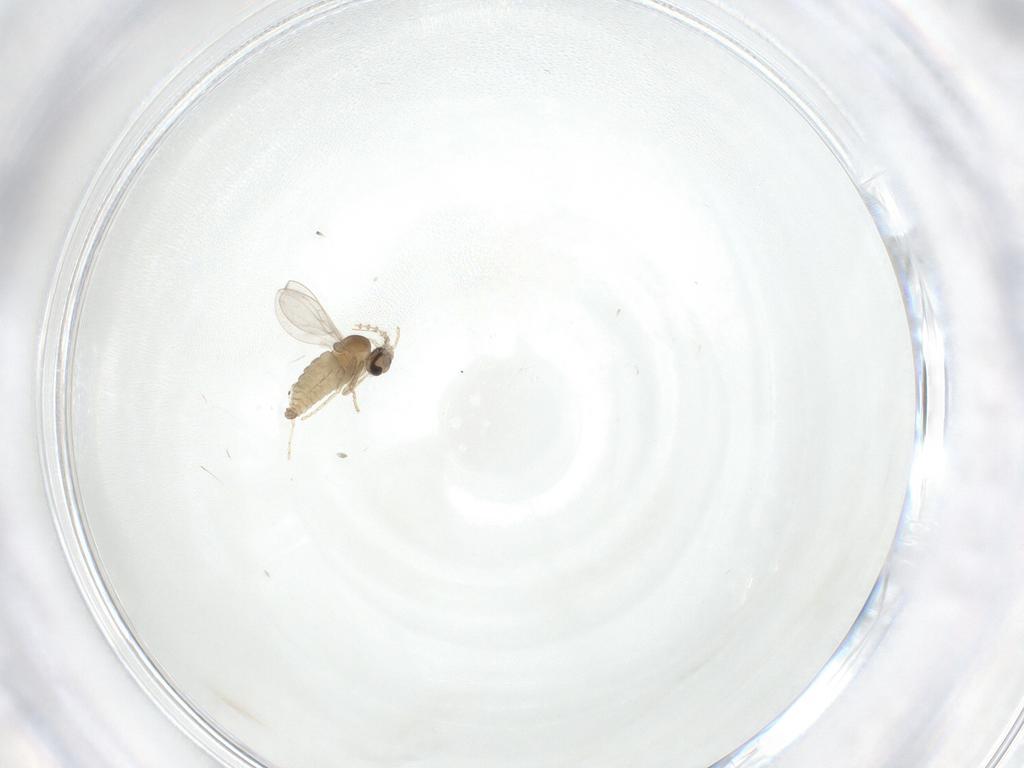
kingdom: Animalia
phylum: Arthropoda
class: Insecta
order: Diptera
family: Cecidomyiidae
